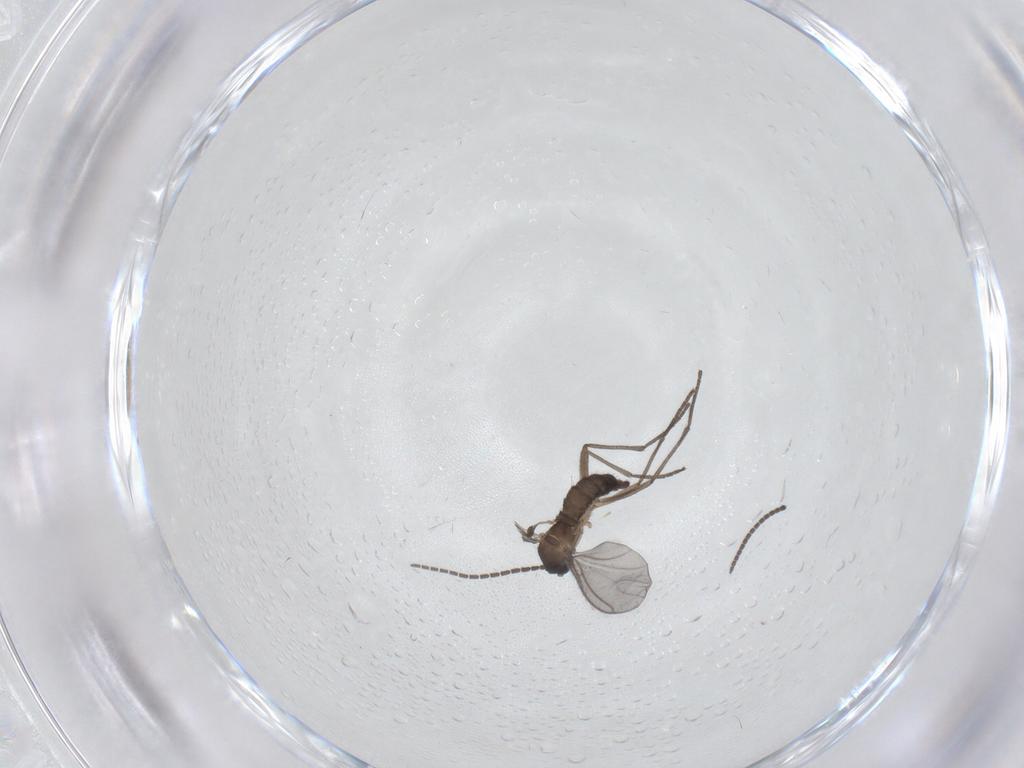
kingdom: Animalia
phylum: Arthropoda
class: Insecta
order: Diptera
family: Sciaridae
